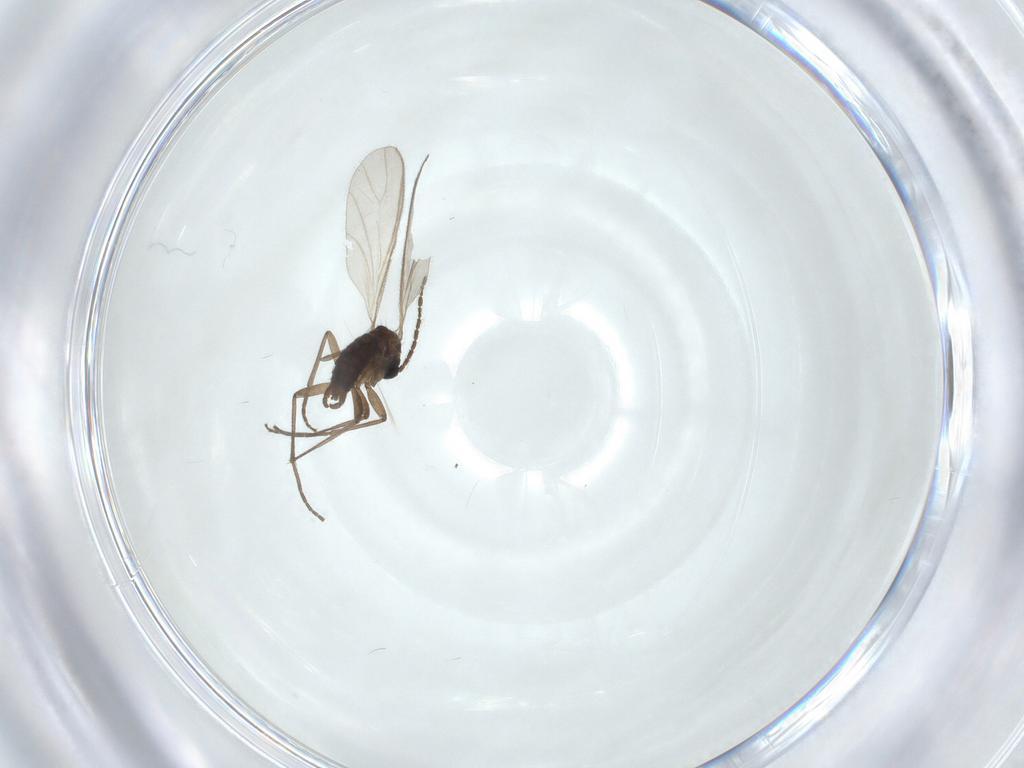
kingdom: Animalia
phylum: Arthropoda
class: Insecta
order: Diptera
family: Sciaridae
